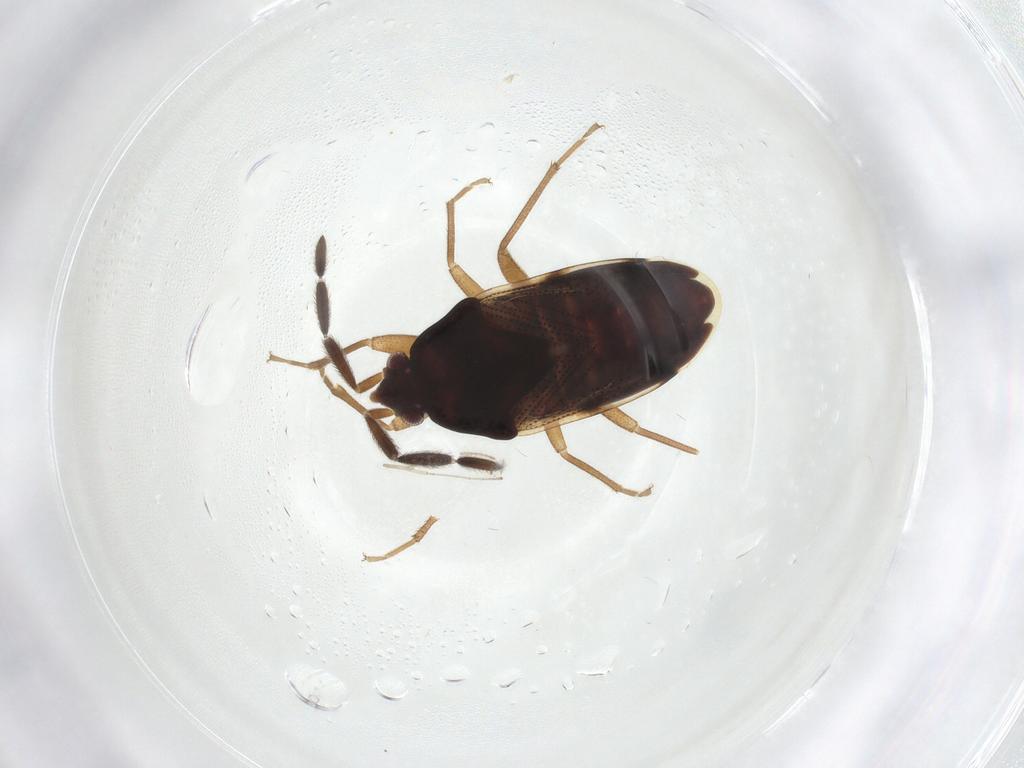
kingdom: Animalia
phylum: Arthropoda
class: Insecta
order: Hemiptera
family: Rhyparochromidae
